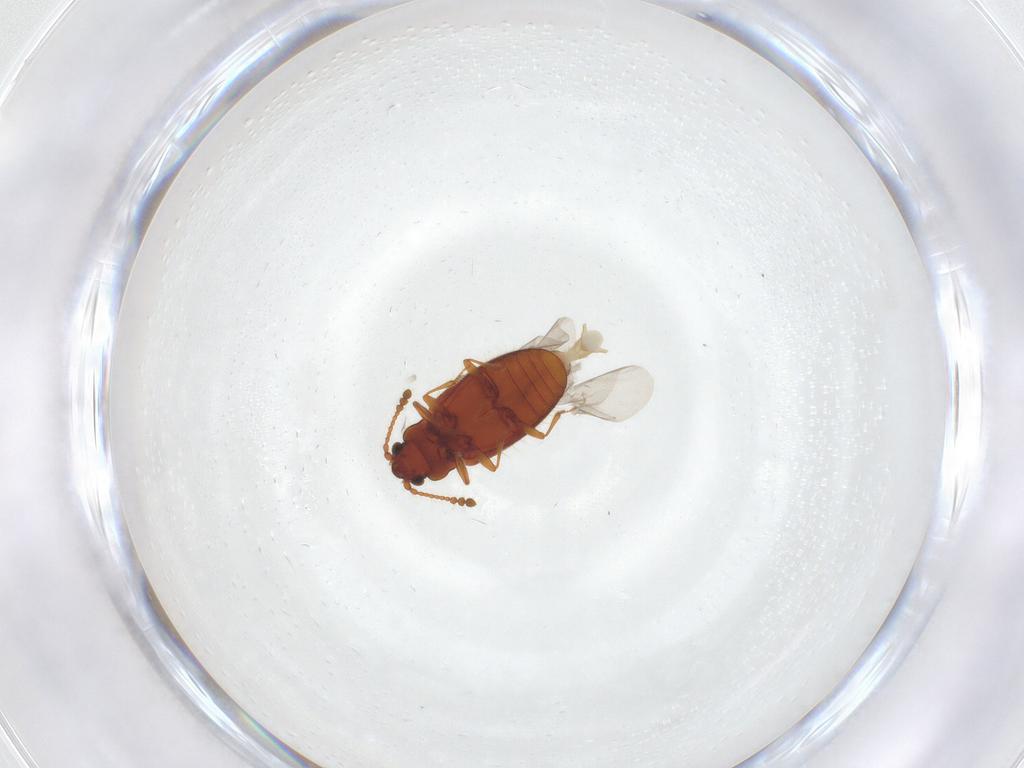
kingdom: Animalia
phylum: Arthropoda
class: Insecta
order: Coleoptera
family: Cryptophagidae
